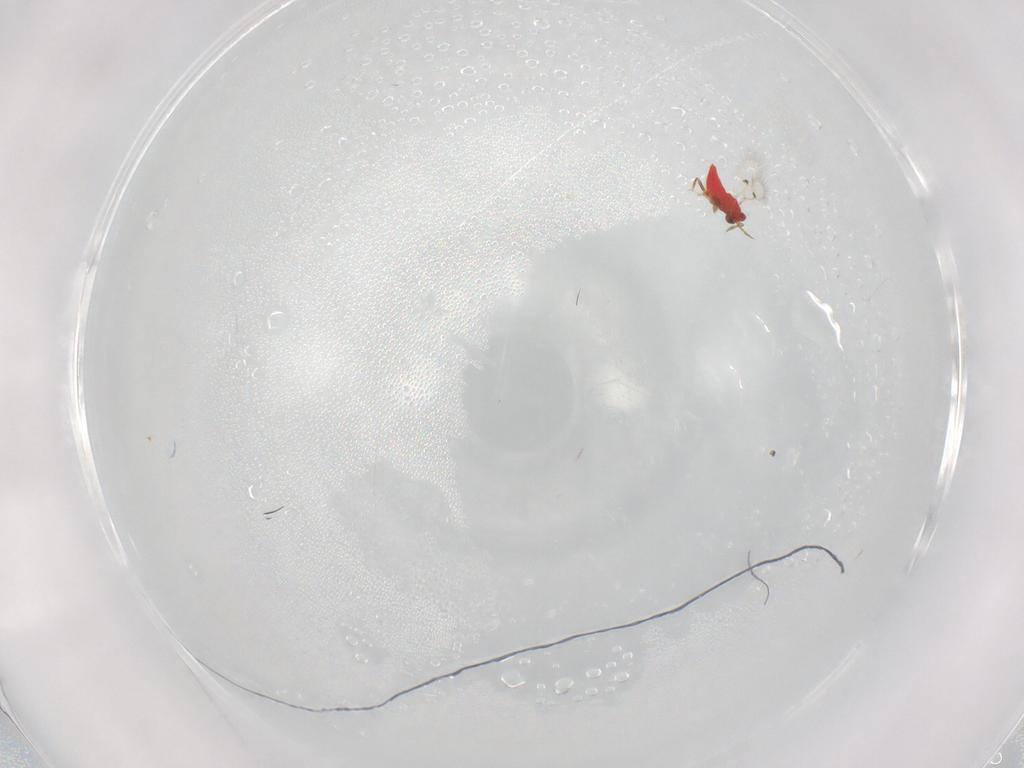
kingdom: Animalia
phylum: Arthropoda
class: Insecta
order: Hymenoptera
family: Aphelinidae
